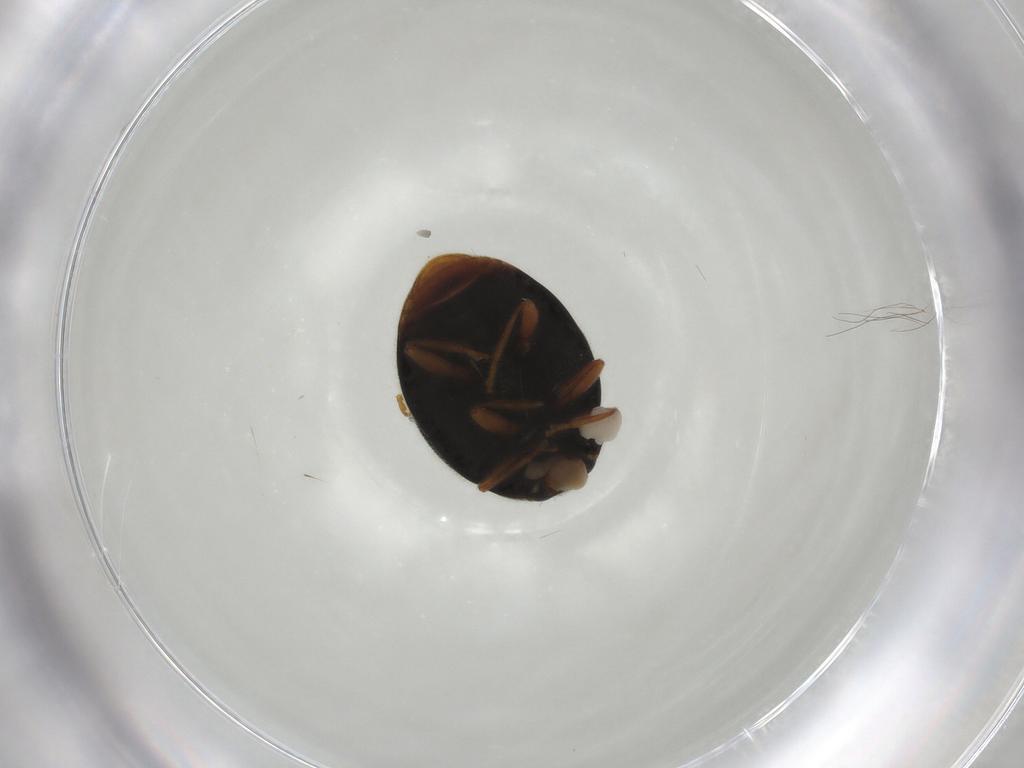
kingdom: Animalia
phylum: Arthropoda
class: Insecta
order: Coleoptera
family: Coccinellidae
